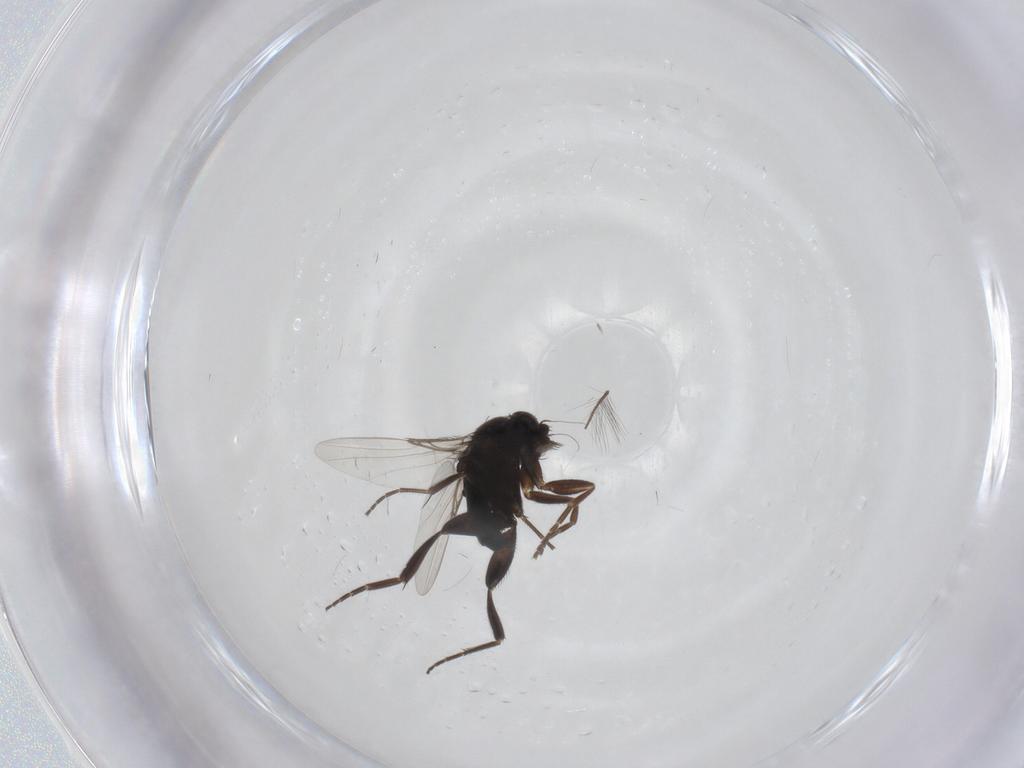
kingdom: Animalia
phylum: Arthropoda
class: Insecta
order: Diptera
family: Phoridae
